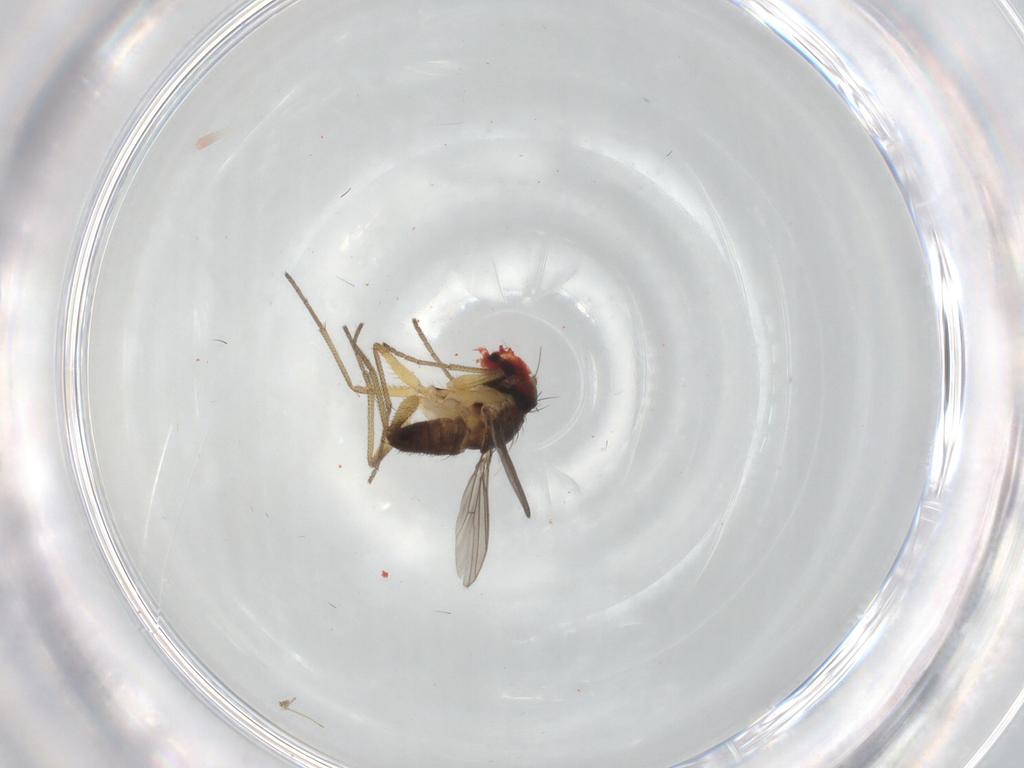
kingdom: Animalia
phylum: Arthropoda
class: Insecta
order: Diptera
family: Dolichopodidae
